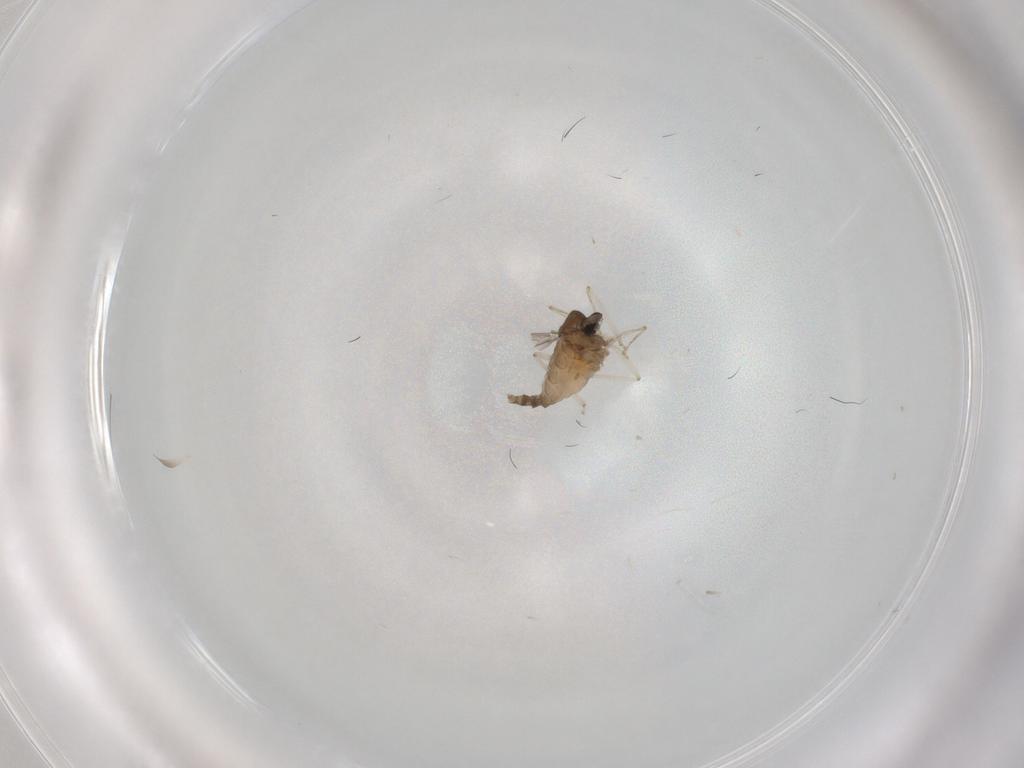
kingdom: Animalia
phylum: Arthropoda
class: Insecta
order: Diptera
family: Cecidomyiidae
